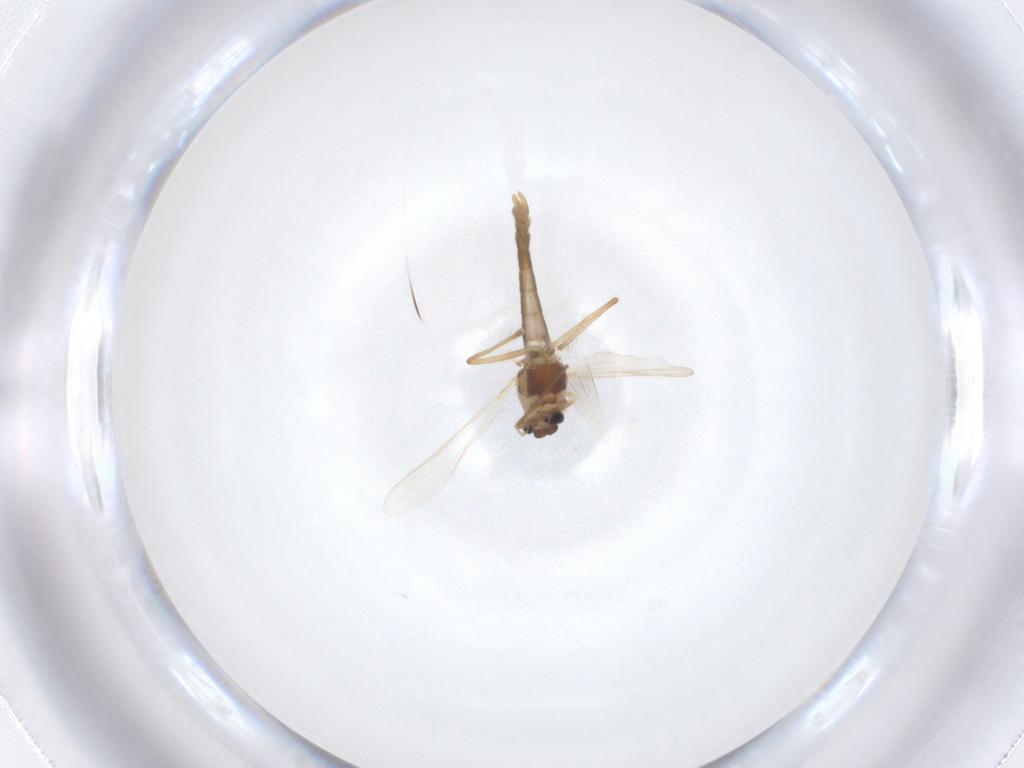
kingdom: Animalia
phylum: Arthropoda
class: Insecta
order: Diptera
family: Chironomidae
